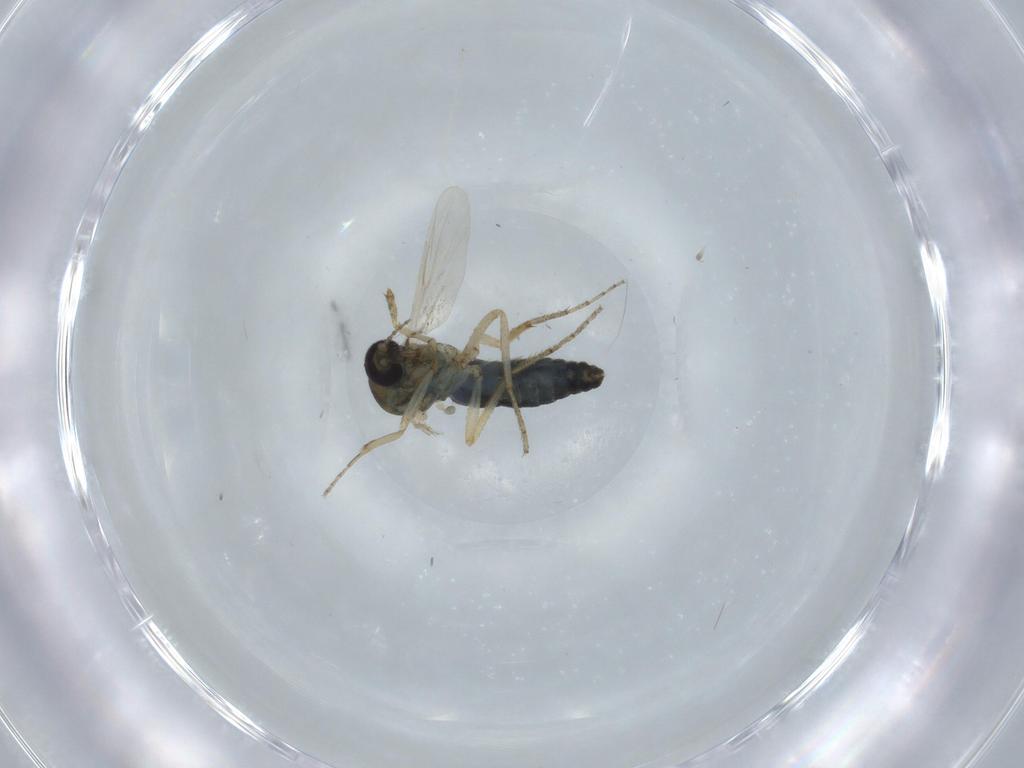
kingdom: Animalia
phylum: Arthropoda
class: Insecta
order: Diptera
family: Ceratopogonidae
